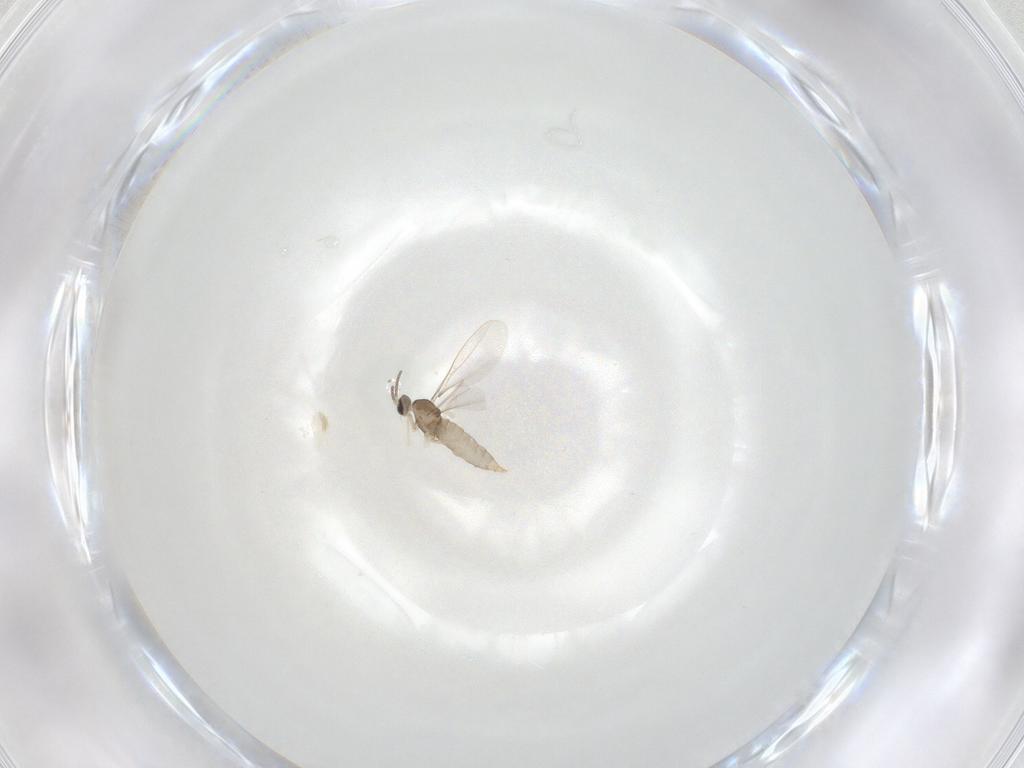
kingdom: Animalia
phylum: Arthropoda
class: Insecta
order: Diptera
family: Cecidomyiidae
